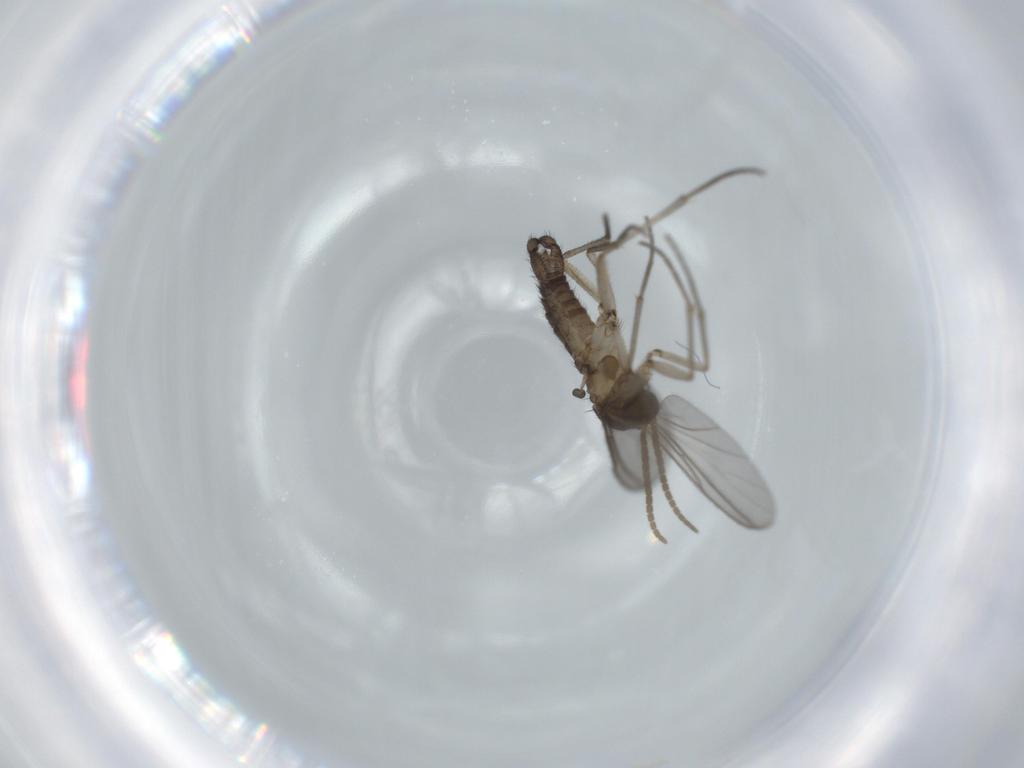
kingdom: Animalia
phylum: Arthropoda
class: Insecta
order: Diptera
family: Sciaridae
